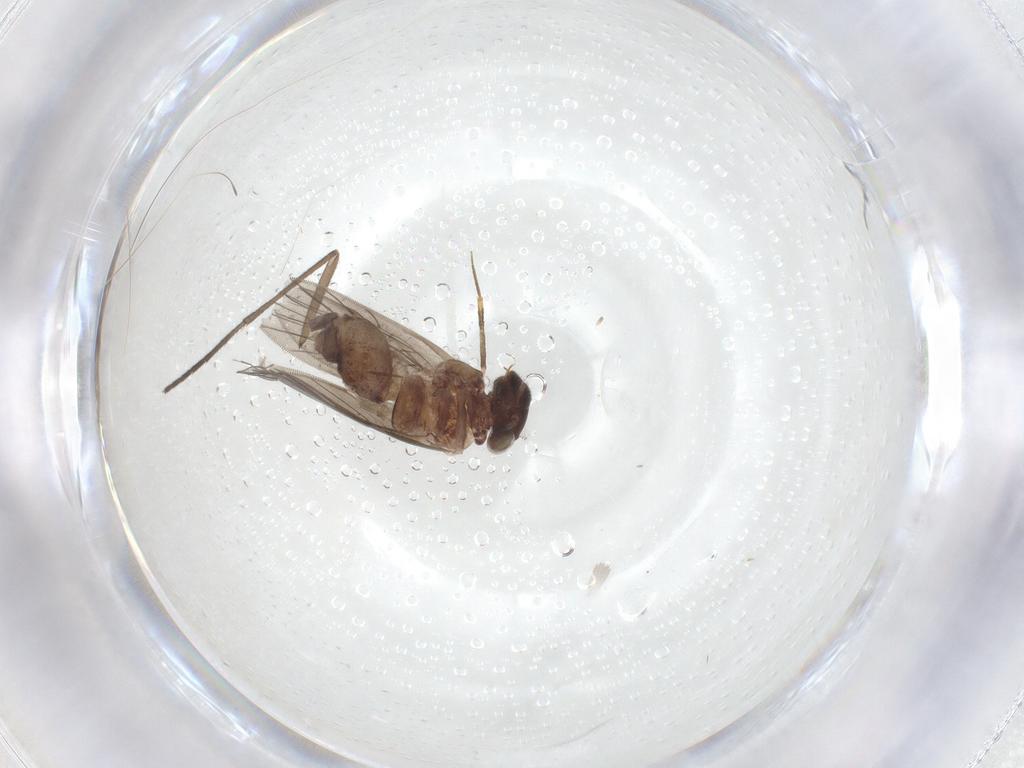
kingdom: Animalia
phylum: Arthropoda
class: Insecta
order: Psocodea
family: Lepidopsocidae
